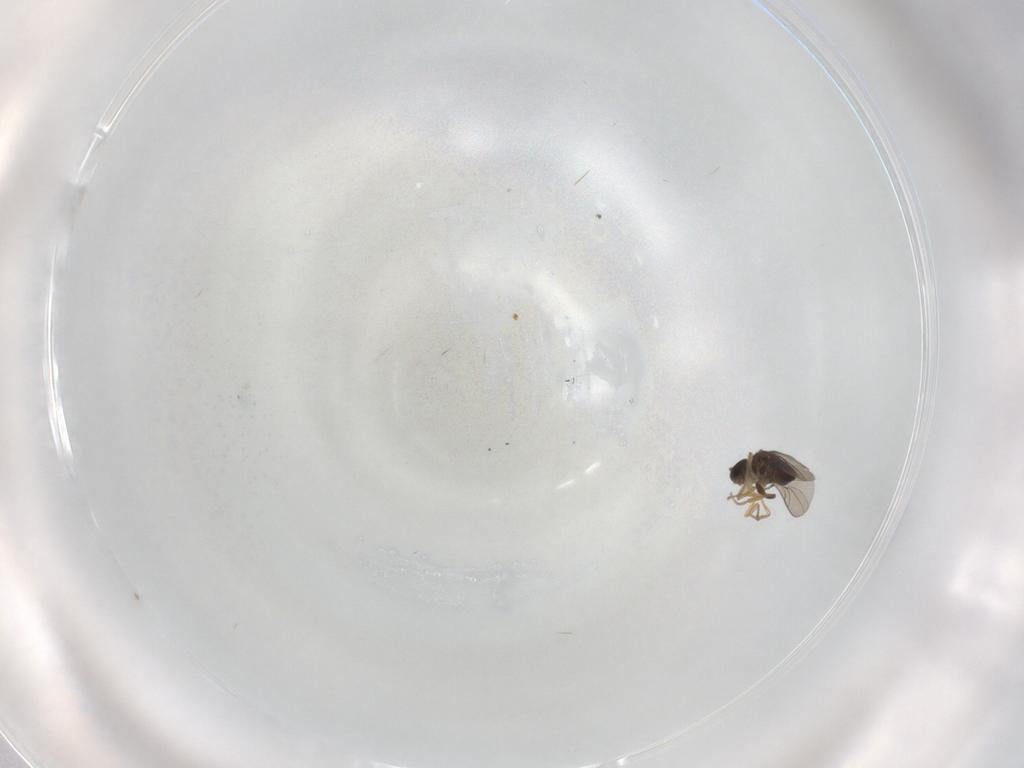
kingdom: Animalia
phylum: Arthropoda
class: Insecta
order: Diptera
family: Hybotidae
